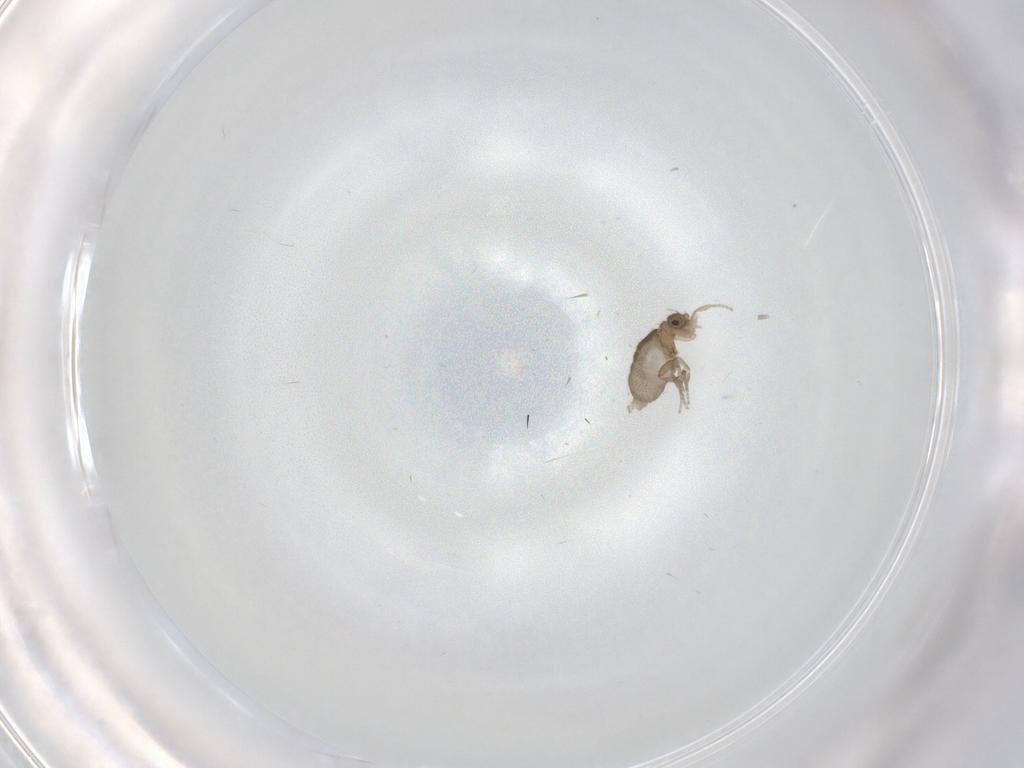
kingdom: Animalia
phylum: Arthropoda
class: Insecta
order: Diptera
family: Phoridae
